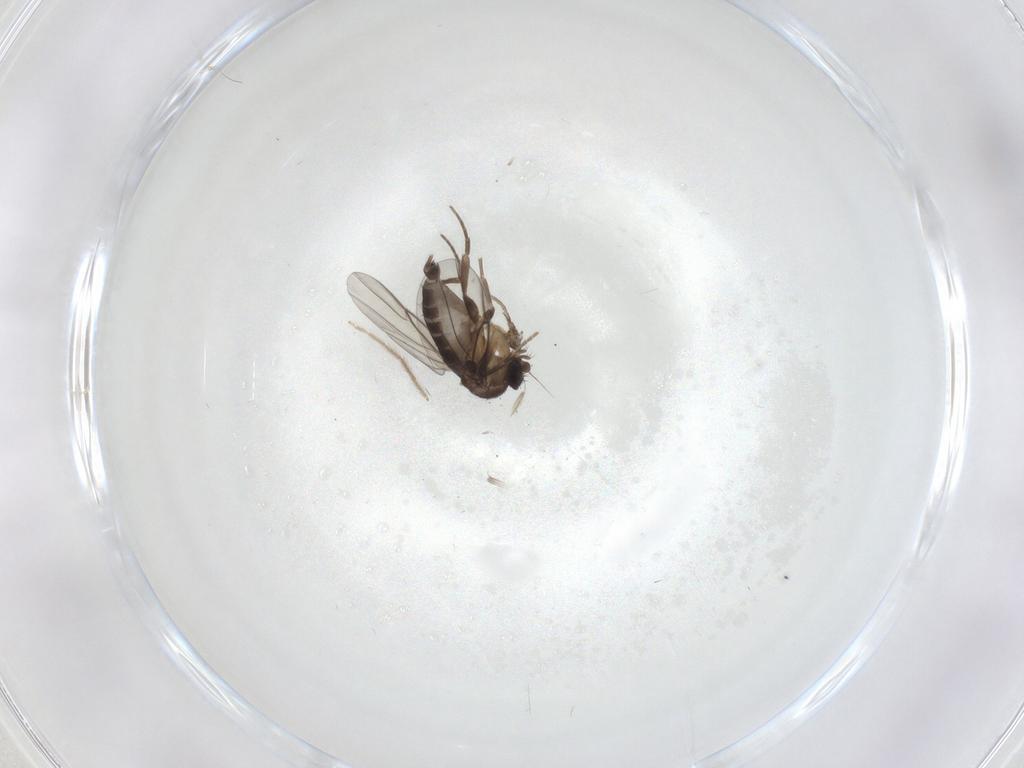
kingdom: Animalia
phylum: Arthropoda
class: Insecta
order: Diptera
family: Phoridae
